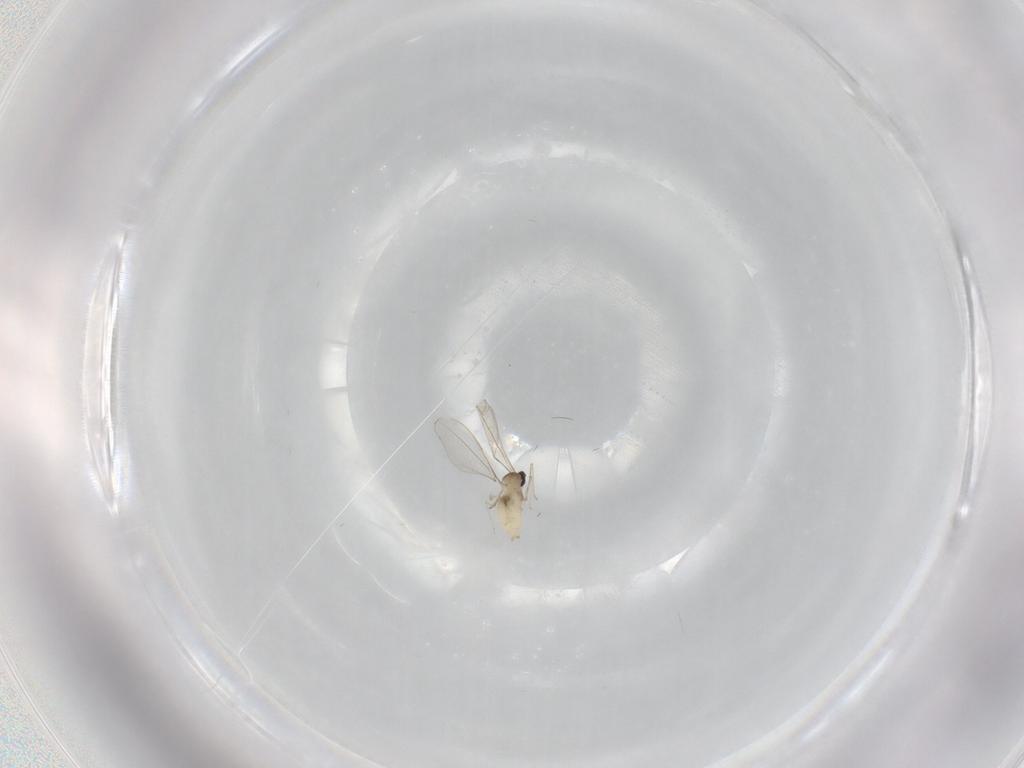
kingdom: Animalia
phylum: Arthropoda
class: Insecta
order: Diptera
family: Cecidomyiidae
